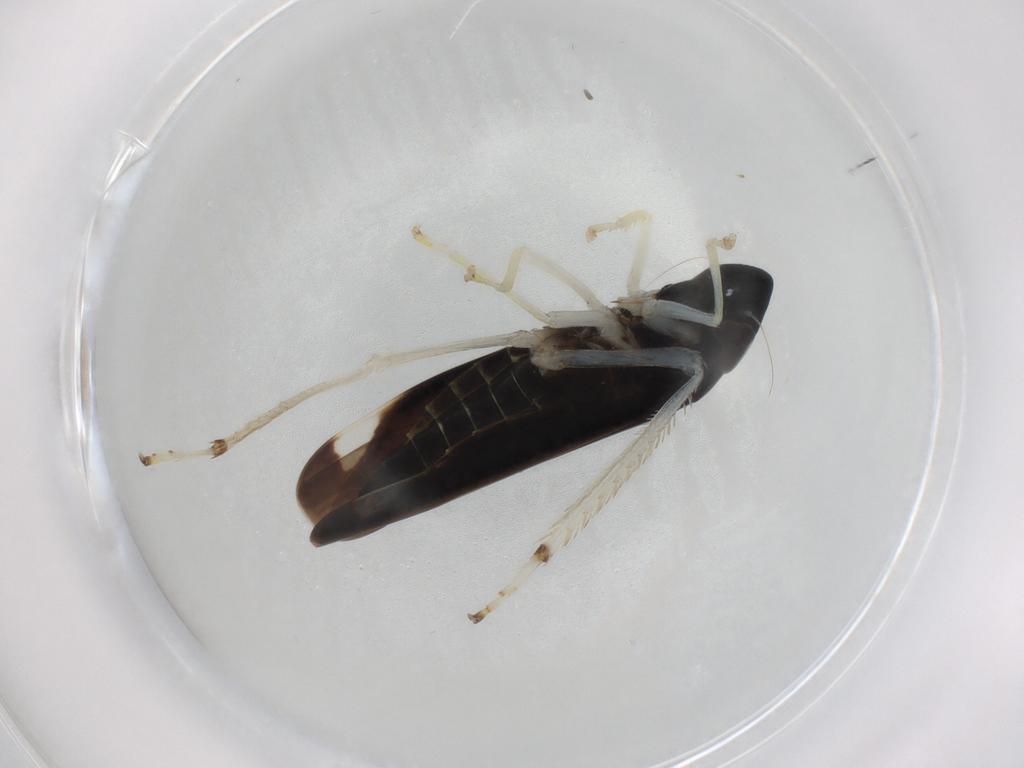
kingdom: Animalia
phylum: Arthropoda
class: Insecta
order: Hemiptera
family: Cicadellidae
